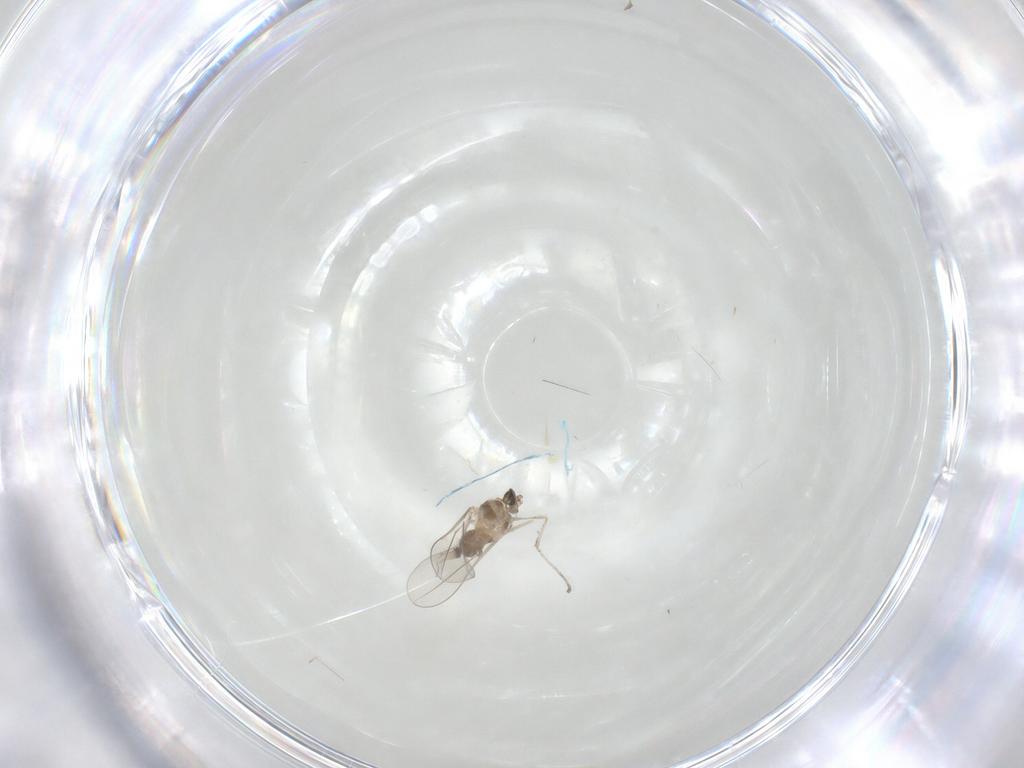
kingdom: Animalia
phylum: Arthropoda
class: Insecta
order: Diptera
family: Cecidomyiidae
